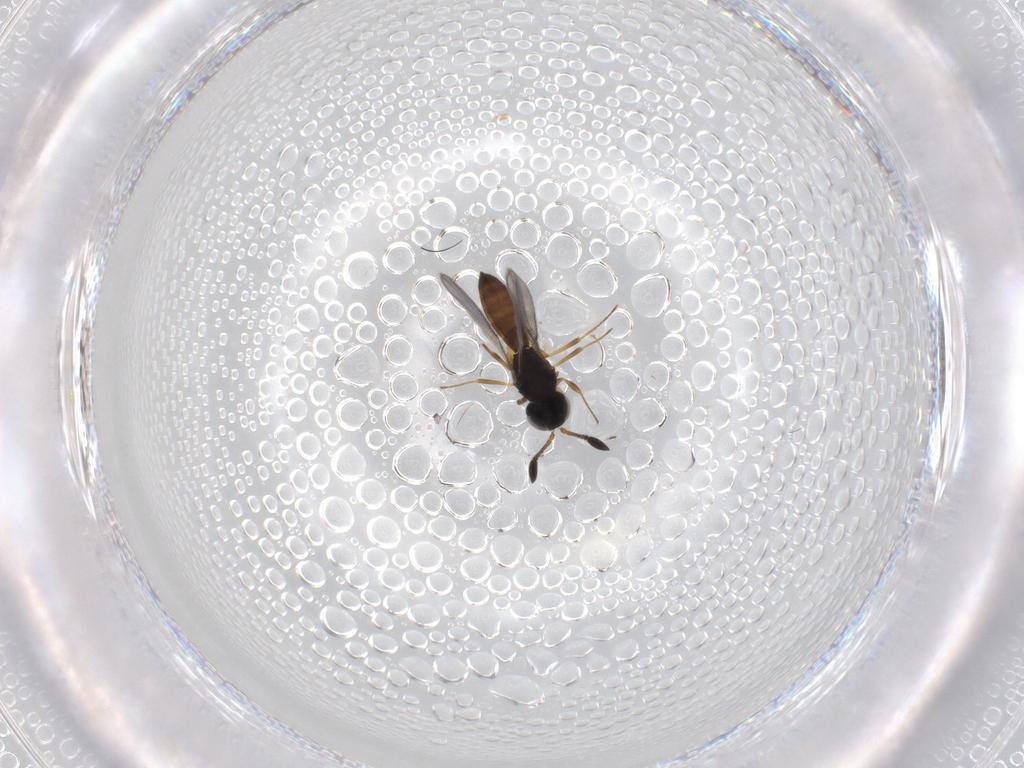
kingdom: Animalia
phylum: Arthropoda
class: Insecta
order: Hymenoptera
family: Scelionidae
